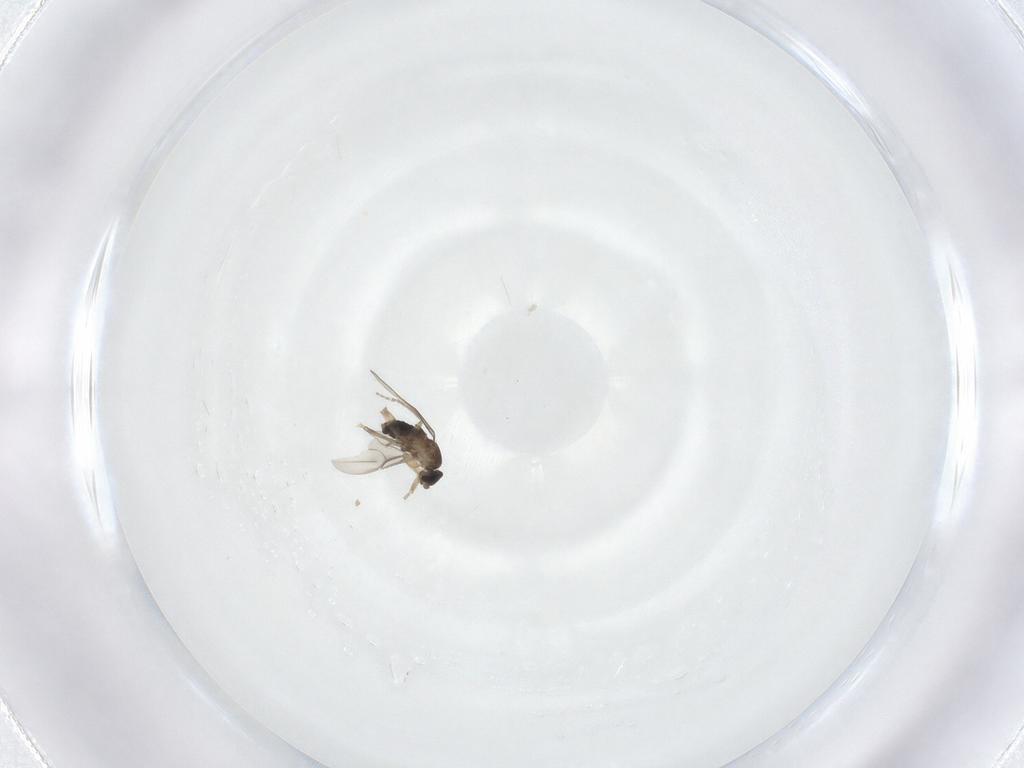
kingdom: Animalia
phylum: Arthropoda
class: Insecta
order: Diptera
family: Phoridae
